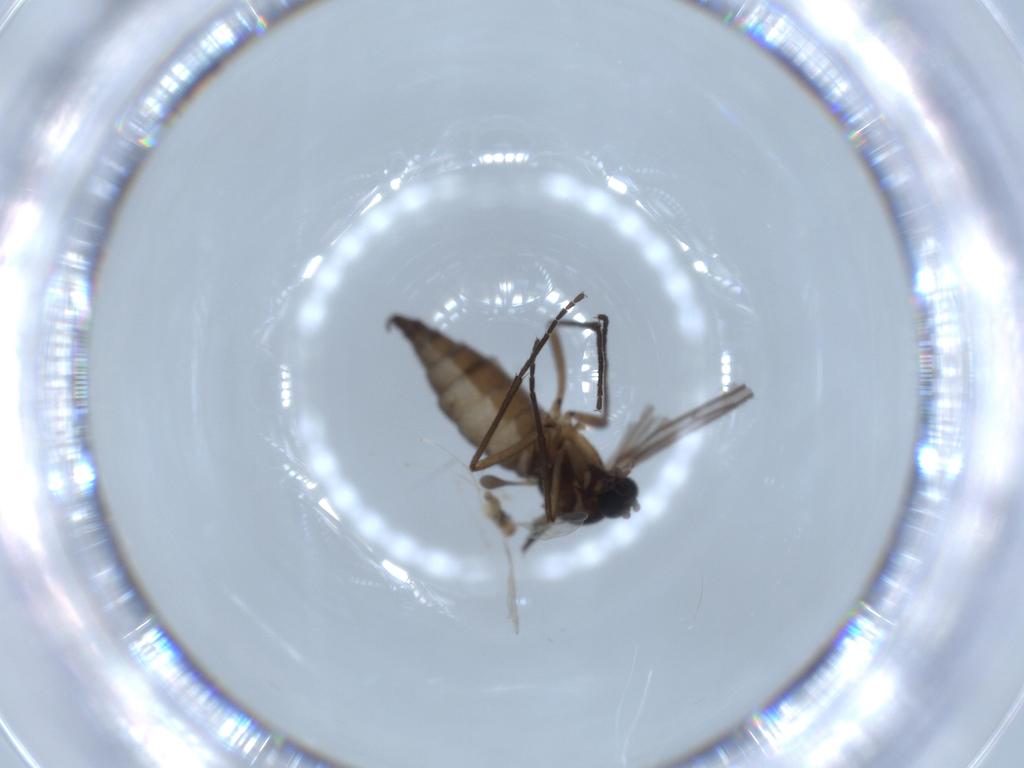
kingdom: Animalia
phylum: Arthropoda
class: Insecta
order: Diptera
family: Sciaridae
